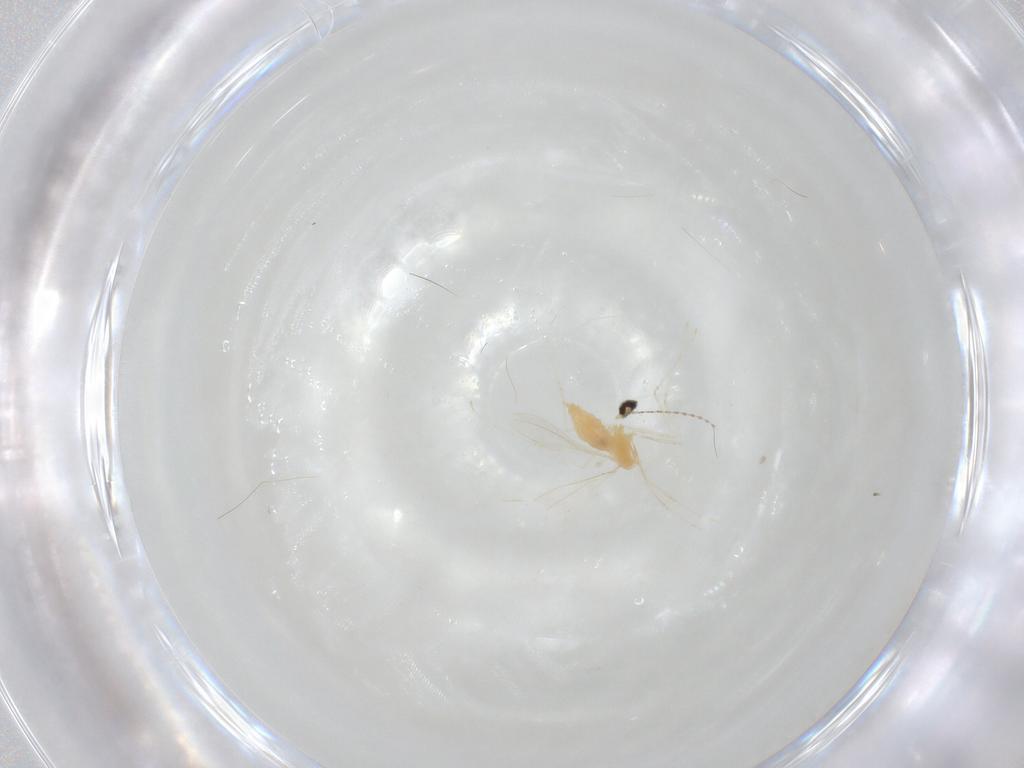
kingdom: Animalia
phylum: Arthropoda
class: Insecta
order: Diptera
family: Cecidomyiidae
